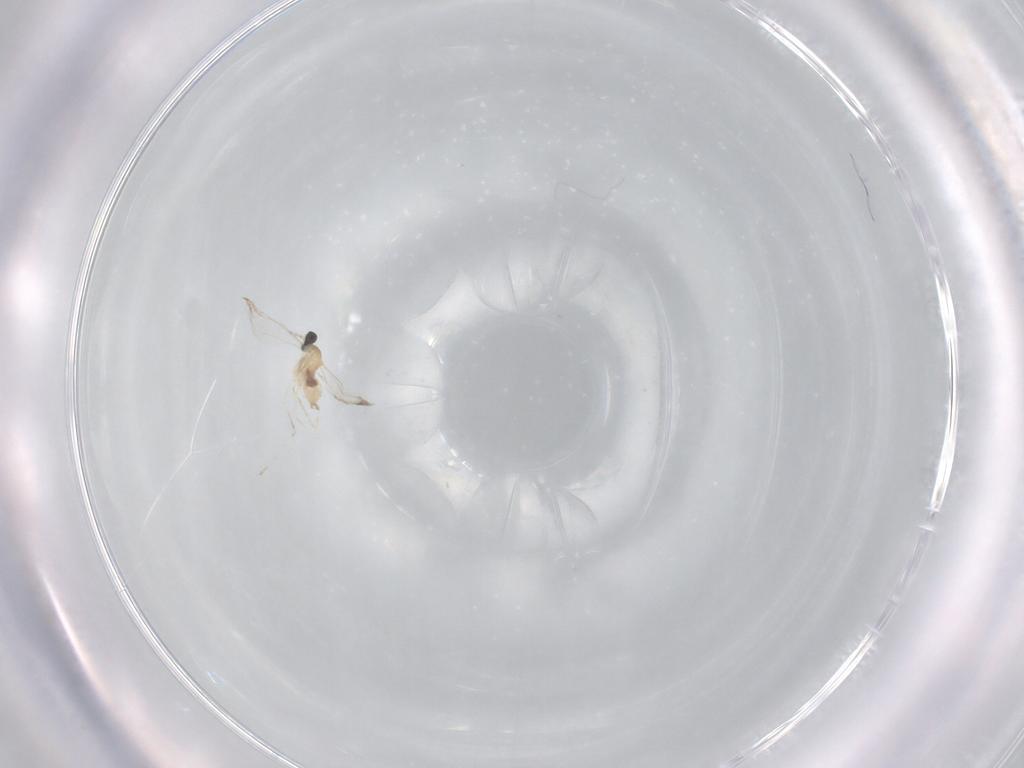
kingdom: Animalia
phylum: Arthropoda
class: Insecta
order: Diptera
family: Cecidomyiidae
